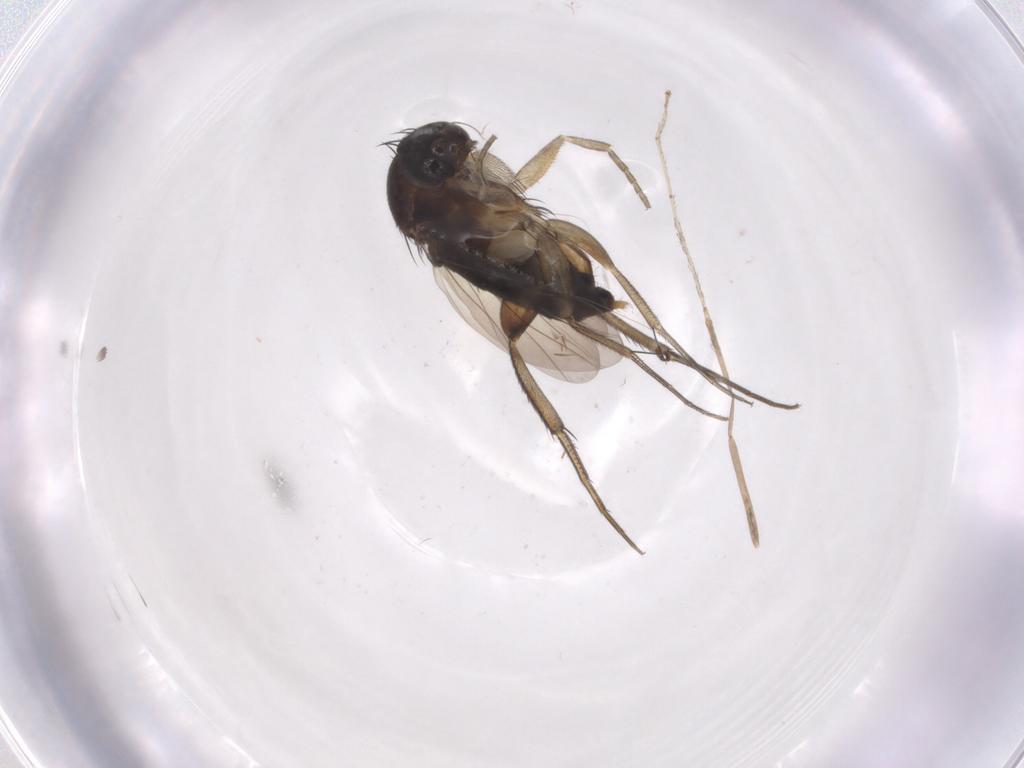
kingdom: Animalia
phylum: Arthropoda
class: Insecta
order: Diptera
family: Phoridae
